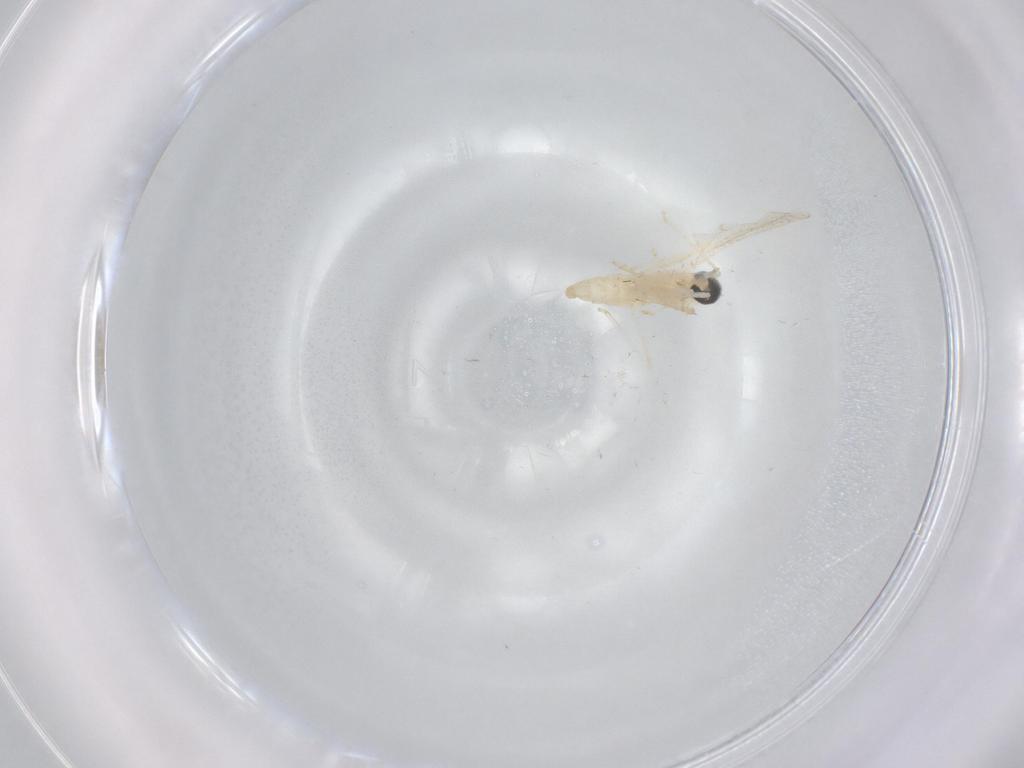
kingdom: Animalia
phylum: Arthropoda
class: Insecta
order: Diptera
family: Cecidomyiidae
